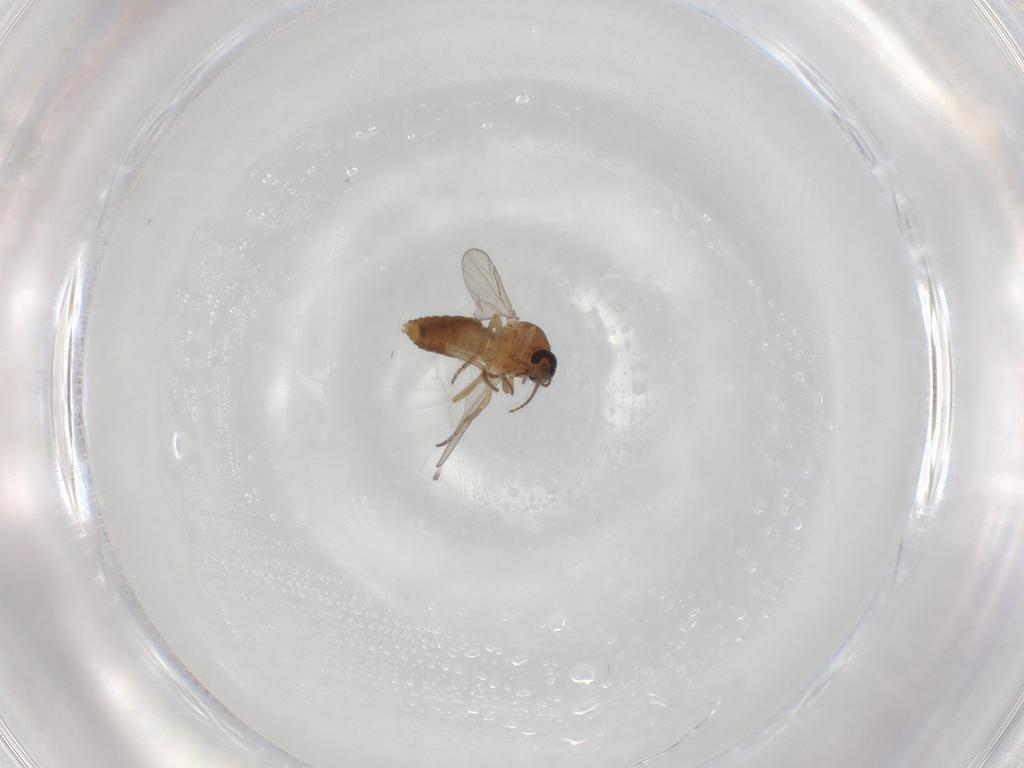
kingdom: Animalia
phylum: Arthropoda
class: Insecta
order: Diptera
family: Ceratopogonidae
